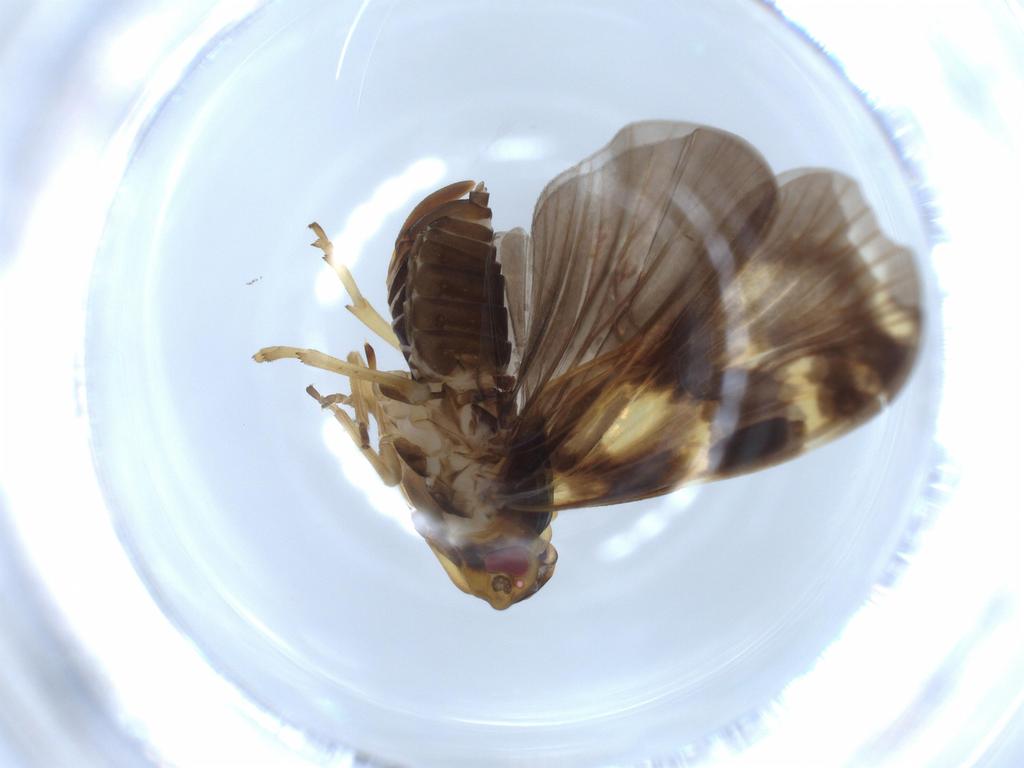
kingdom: Animalia
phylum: Arthropoda
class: Insecta
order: Hemiptera
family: Cixiidae
